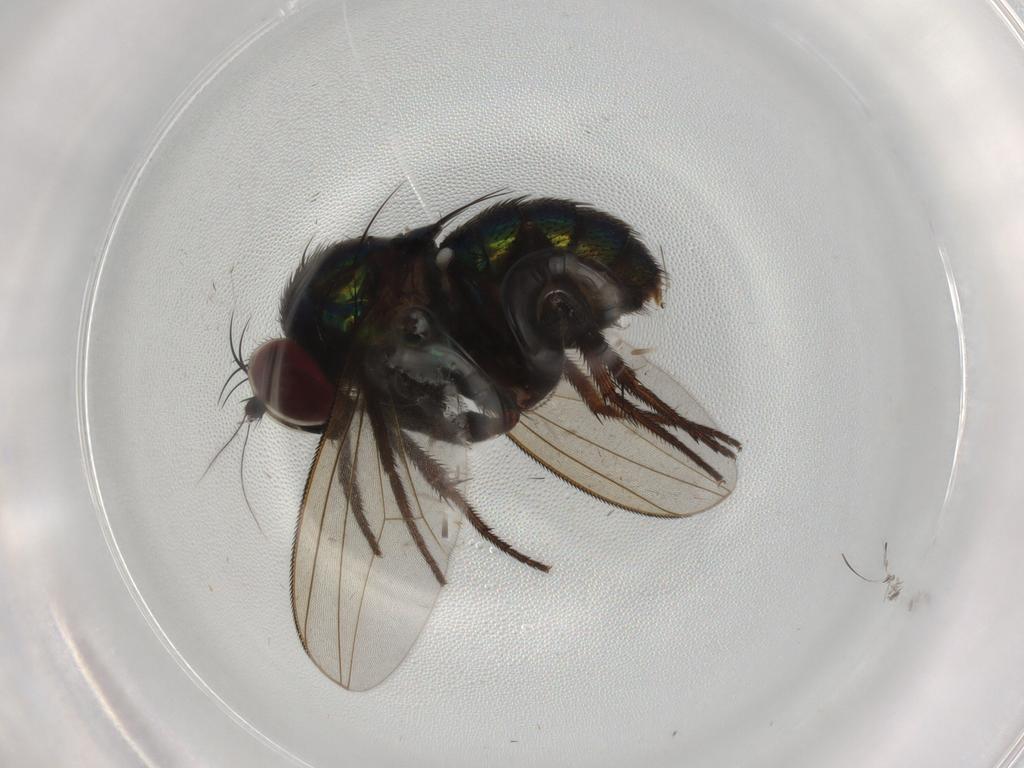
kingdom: Animalia
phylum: Arthropoda
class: Insecta
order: Diptera
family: Dolichopodidae
